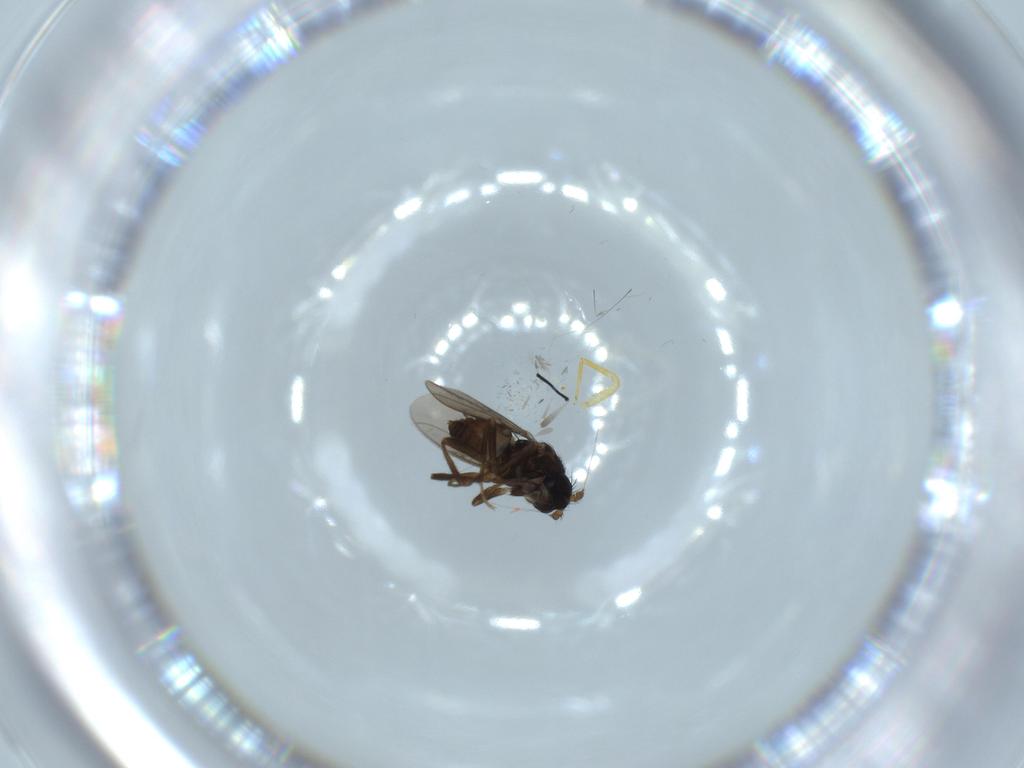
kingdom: Animalia
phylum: Arthropoda
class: Insecta
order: Diptera
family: Sphaeroceridae
